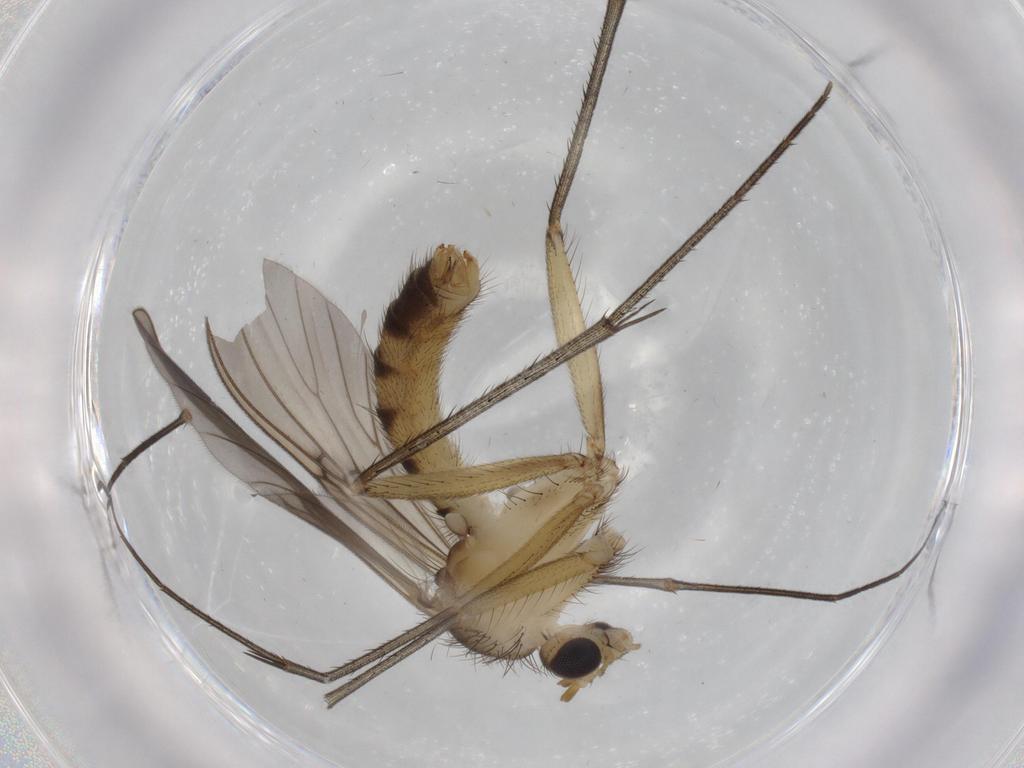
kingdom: Animalia
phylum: Arthropoda
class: Insecta
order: Diptera
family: Mycetophilidae
